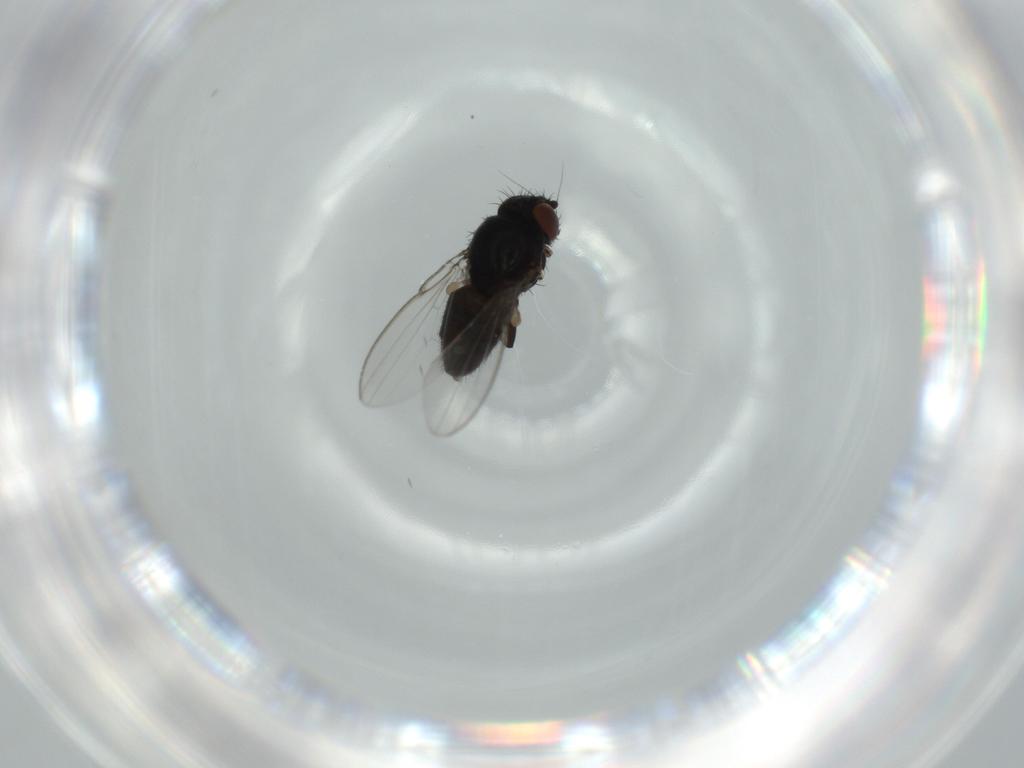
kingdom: Animalia
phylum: Arthropoda
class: Insecta
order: Diptera
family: Milichiidae
